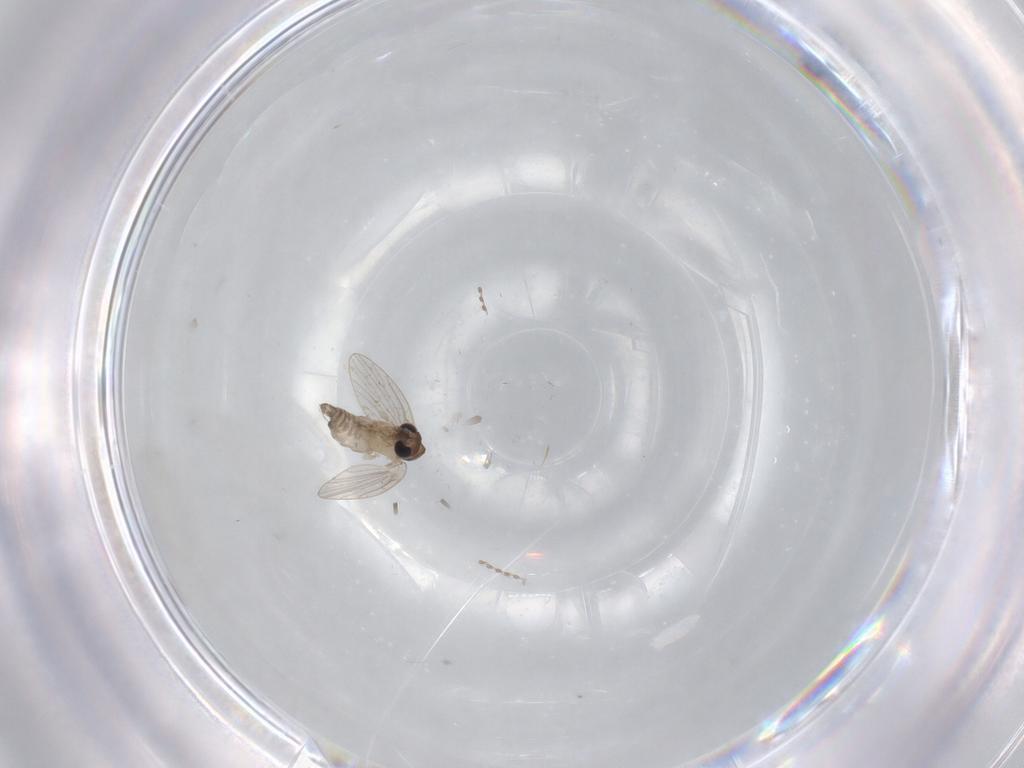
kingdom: Animalia
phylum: Arthropoda
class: Insecta
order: Diptera
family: Psychodidae
